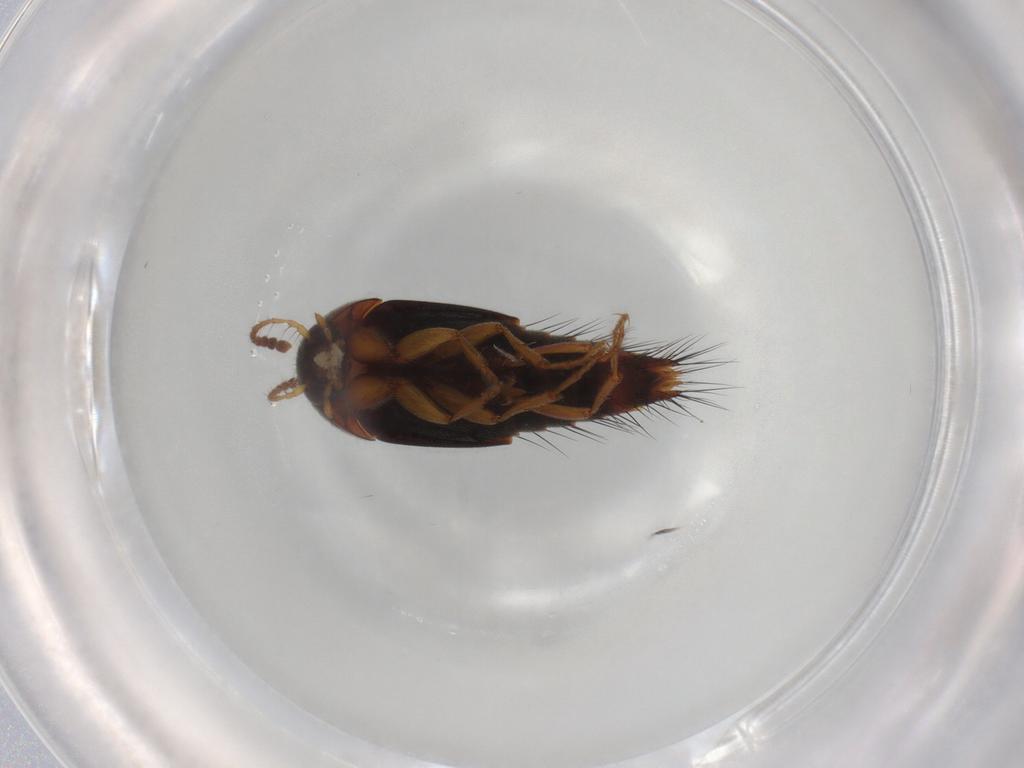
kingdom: Animalia
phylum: Arthropoda
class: Insecta
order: Coleoptera
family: Staphylinidae
